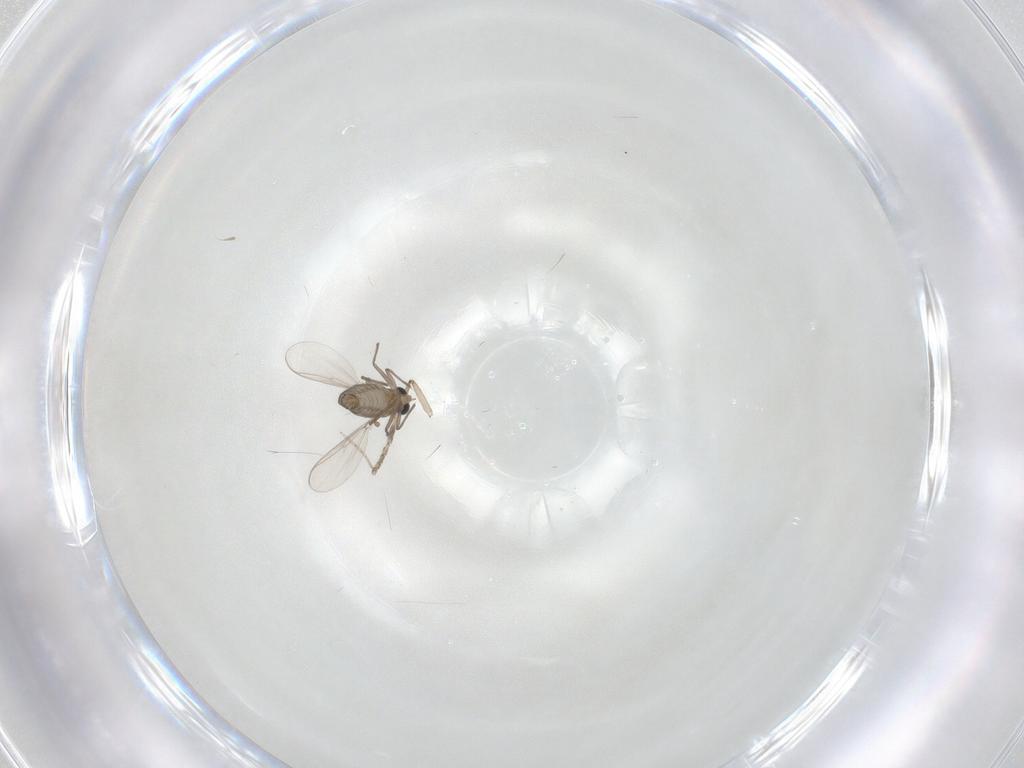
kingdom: Animalia
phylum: Arthropoda
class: Insecta
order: Diptera
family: Chironomidae
